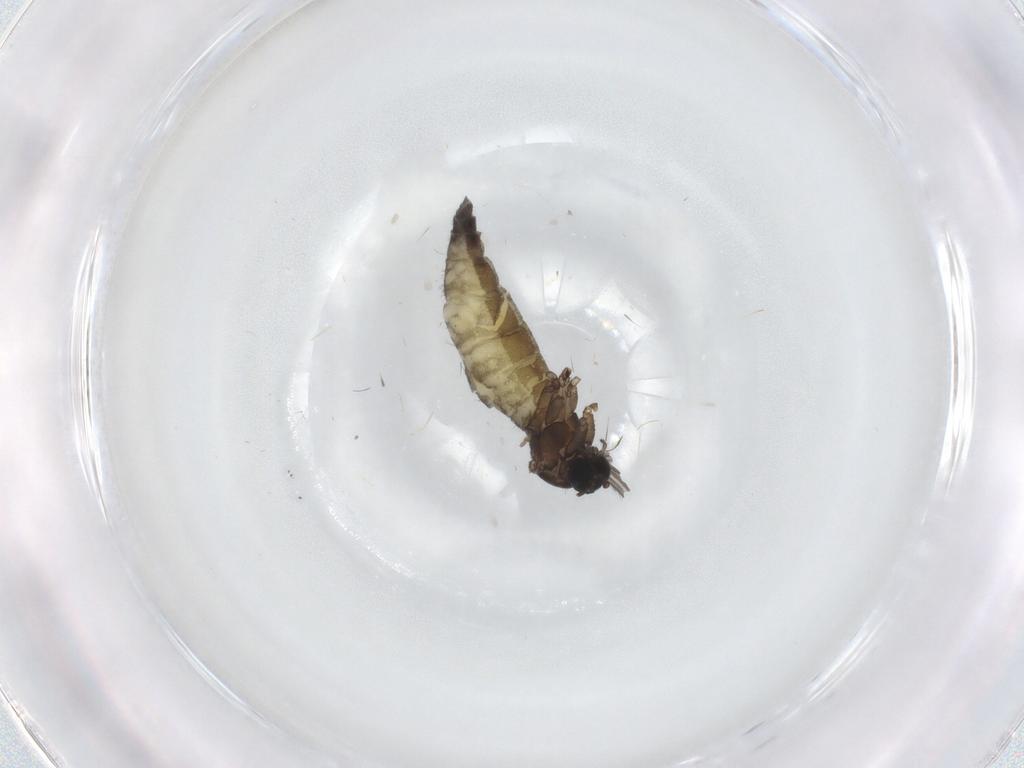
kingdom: Animalia
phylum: Arthropoda
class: Insecta
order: Diptera
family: Sciaridae
